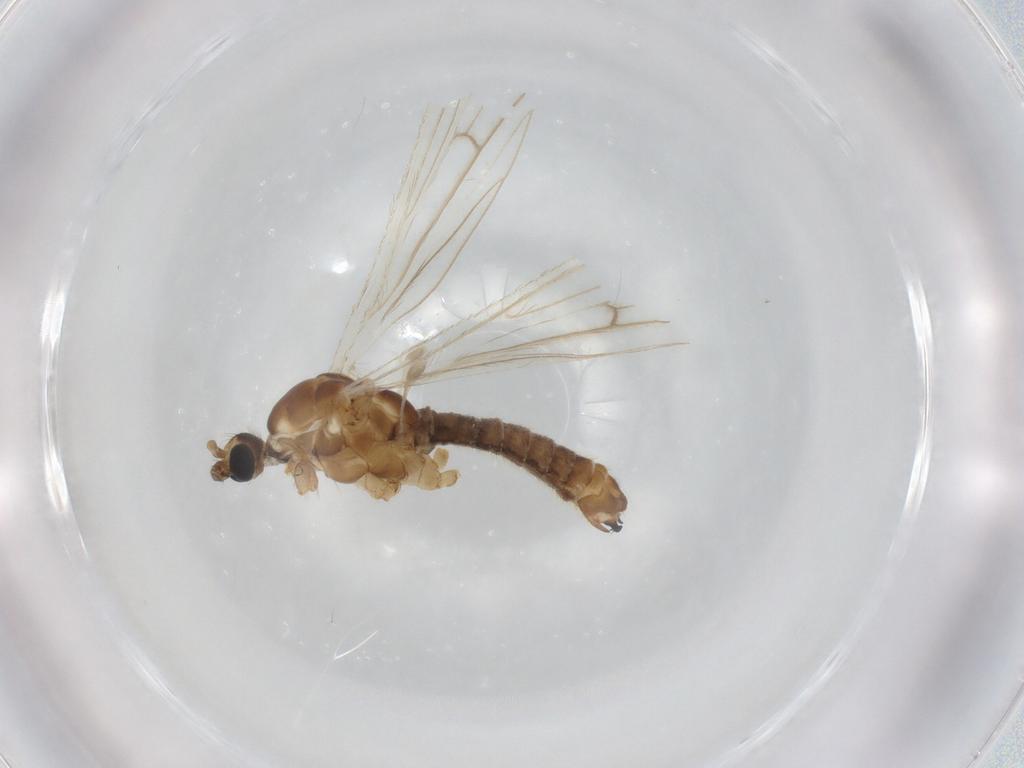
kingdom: Animalia
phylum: Arthropoda
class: Insecta
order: Diptera
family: Limoniidae
